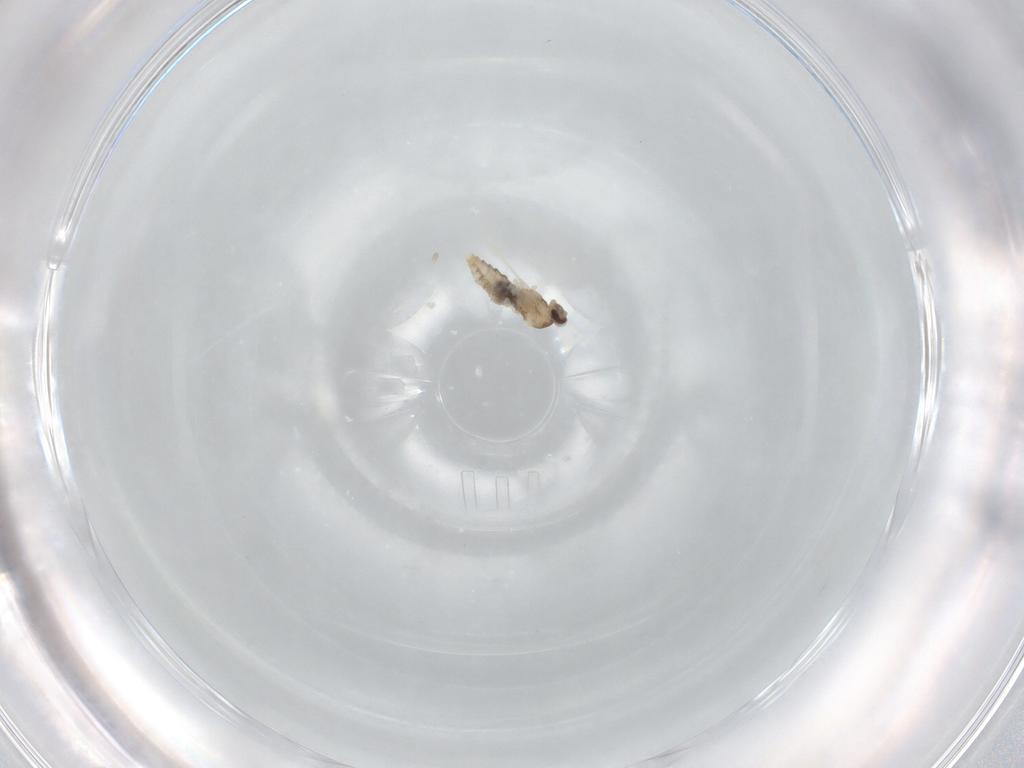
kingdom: Animalia
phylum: Arthropoda
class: Insecta
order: Diptera
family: Cecidomyiidae
